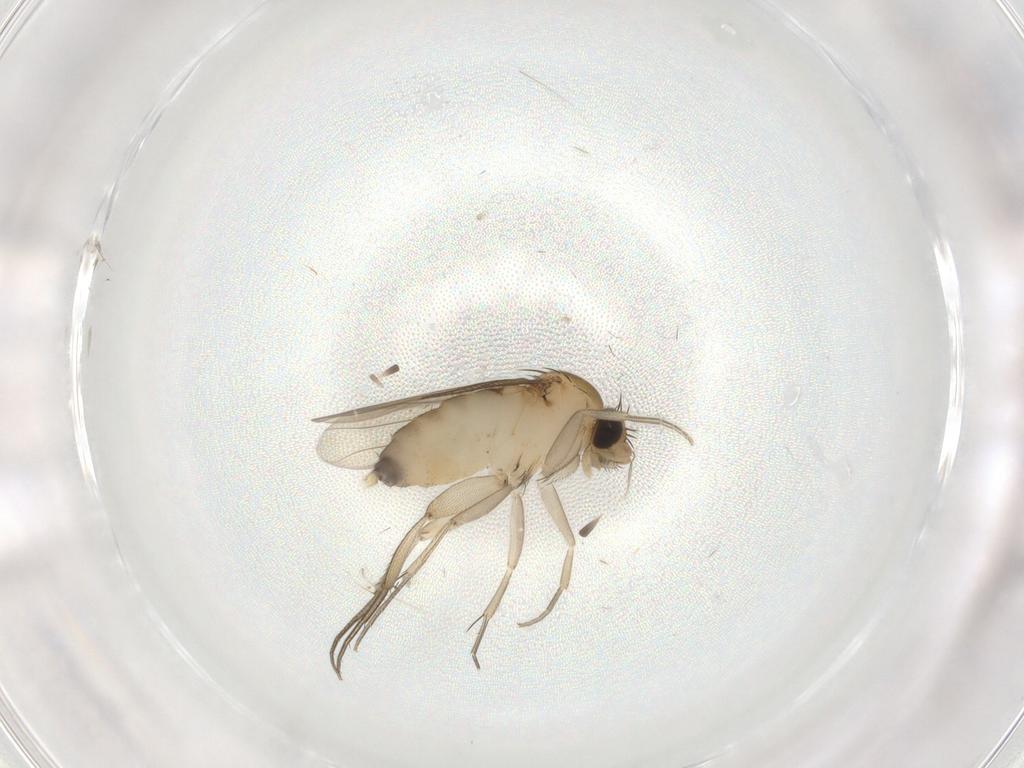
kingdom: Animalia
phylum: Arthropoda
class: Insecta
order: Diptera
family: Phoridae
